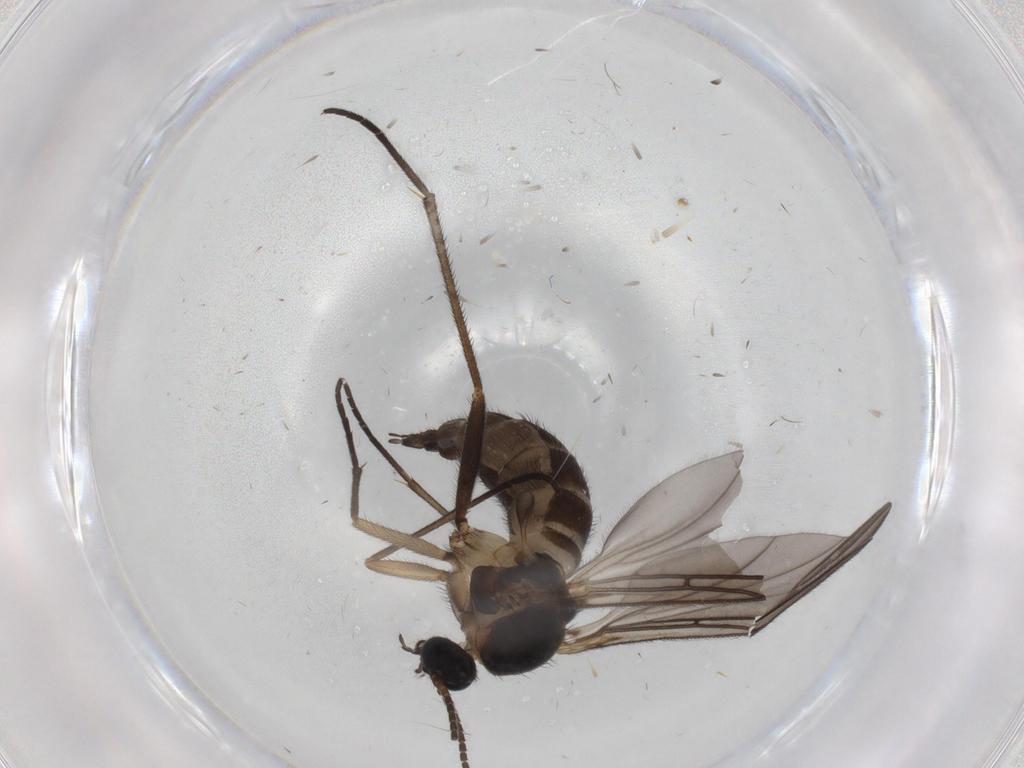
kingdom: Animalia
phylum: Arthropoda
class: Insecta
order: Diptera
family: Sciaridae
